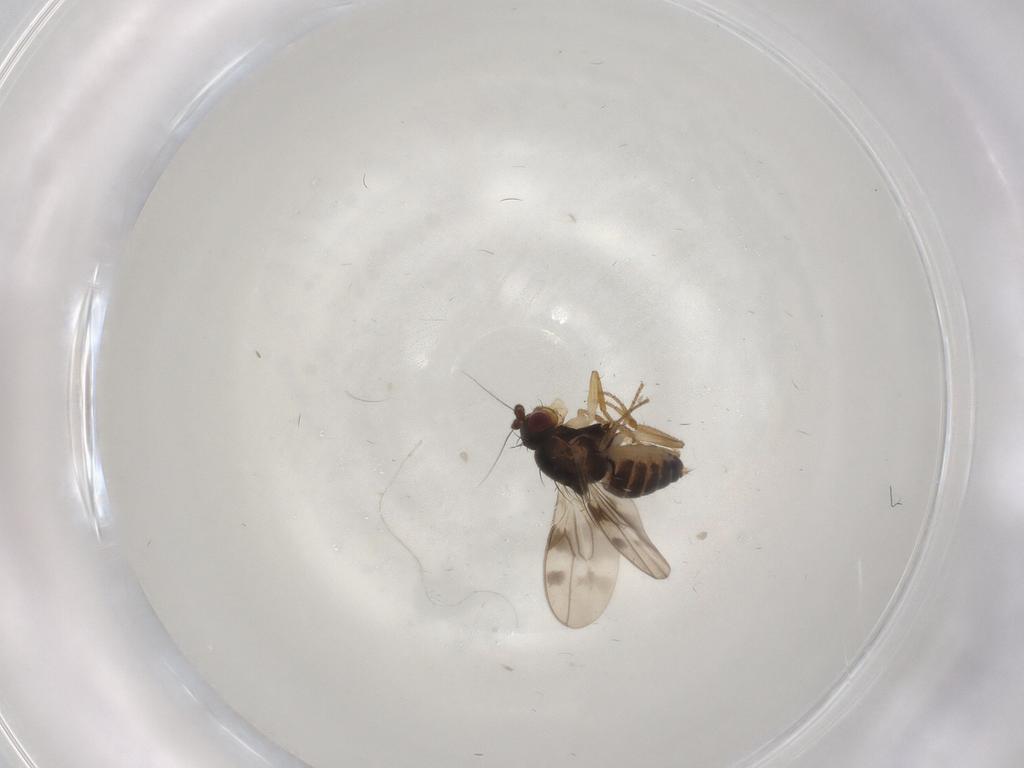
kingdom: Animalia
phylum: Arthropoda
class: Insecta
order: Diptera
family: Sphaeroceridae
